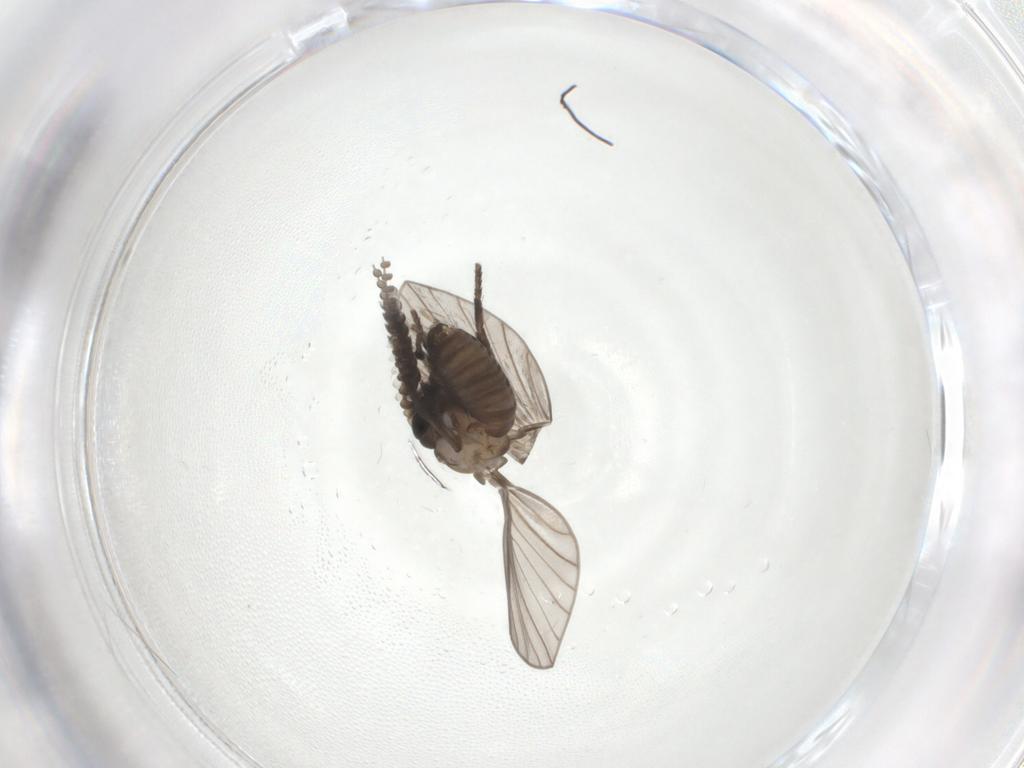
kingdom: Animalia
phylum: Arthropoda
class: Insecta
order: Diptera
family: Psychodidae
